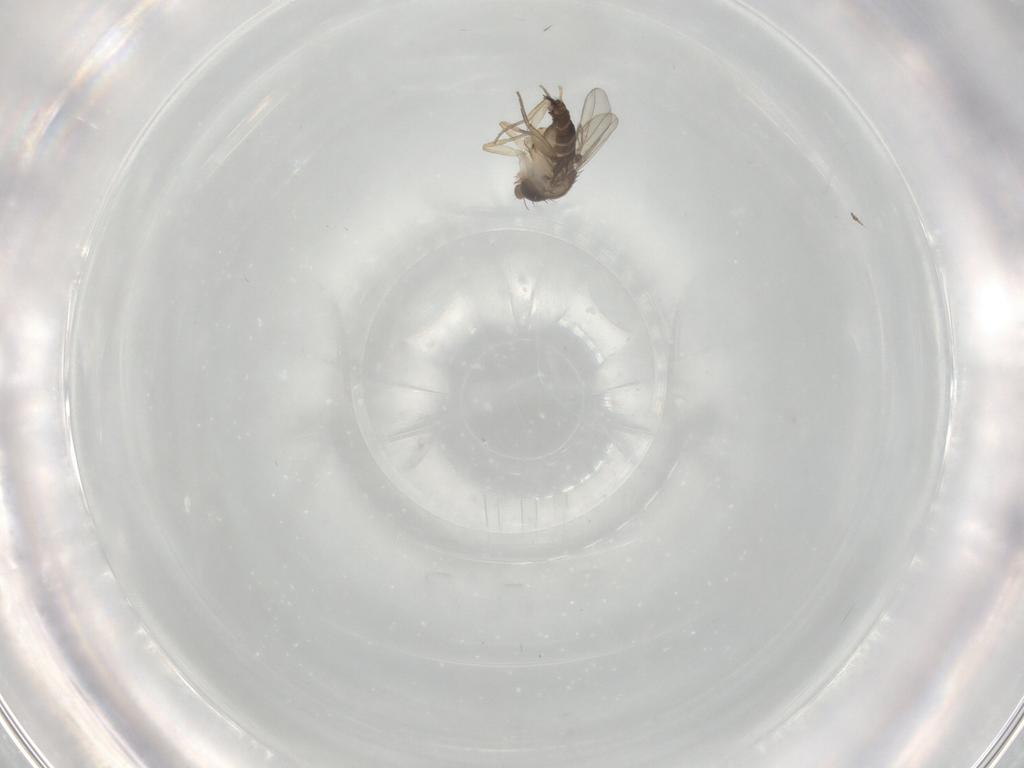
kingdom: Animalia
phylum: Arthropoda
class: Insecta
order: Diptera
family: Phoridae
